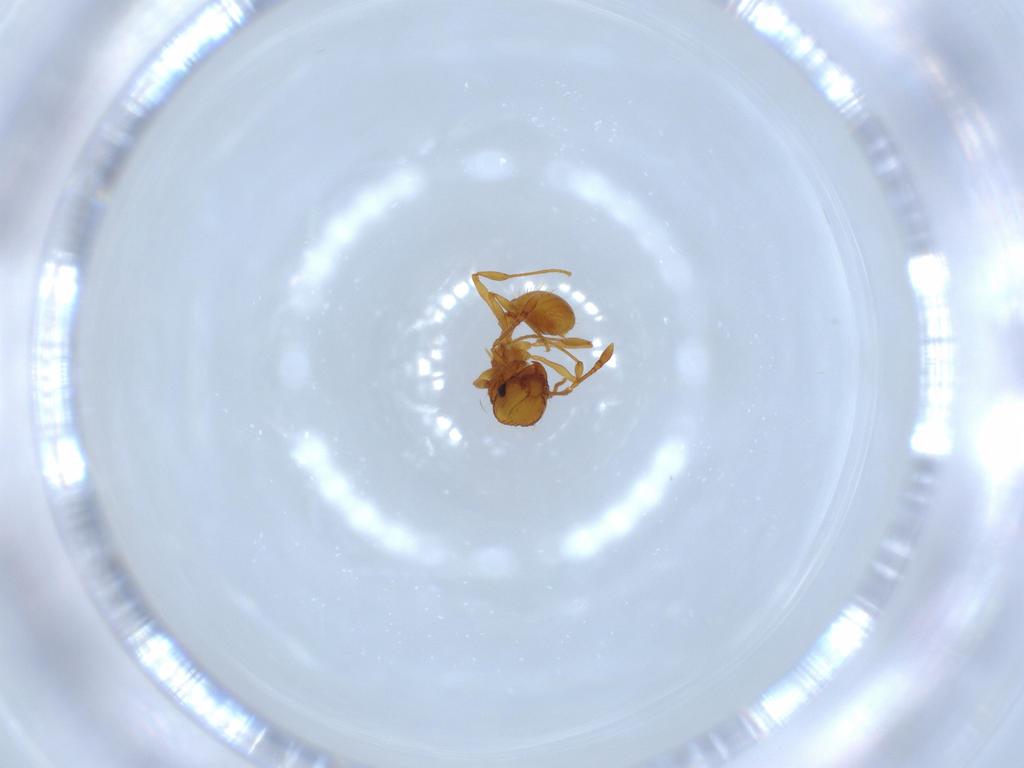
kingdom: Animalia
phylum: Arthropoda
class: Insecta
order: Hymenoptera
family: Formicidae
